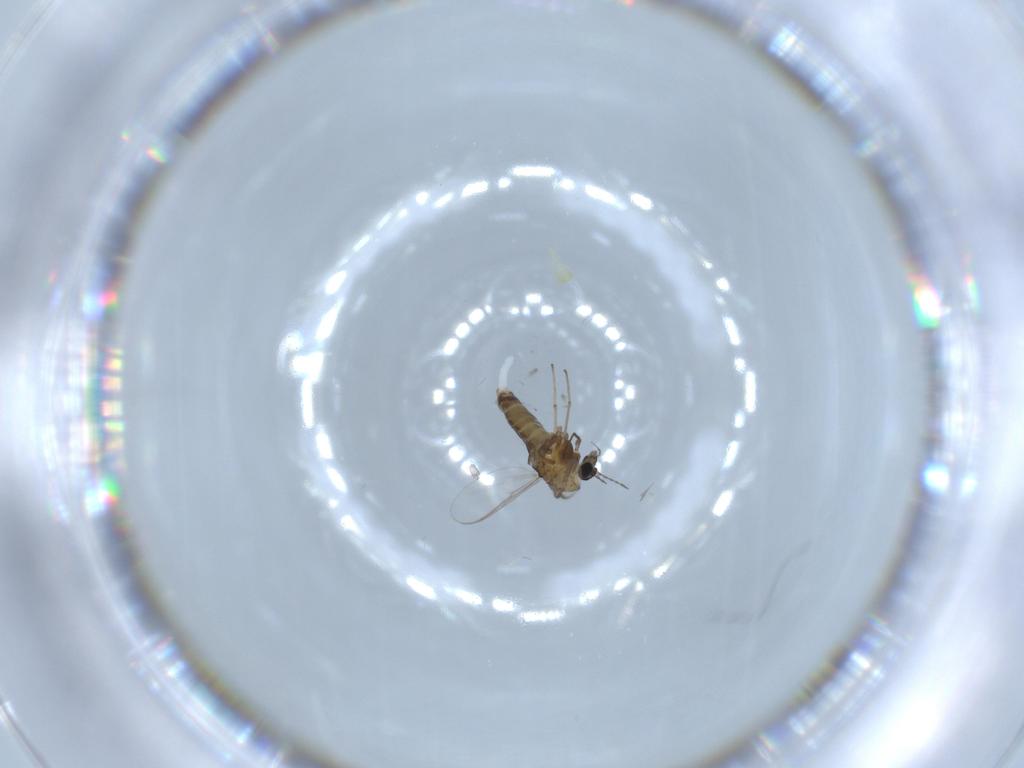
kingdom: Animalia
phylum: Arthropoda
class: Insecta
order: Diptera
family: Chironomidae
